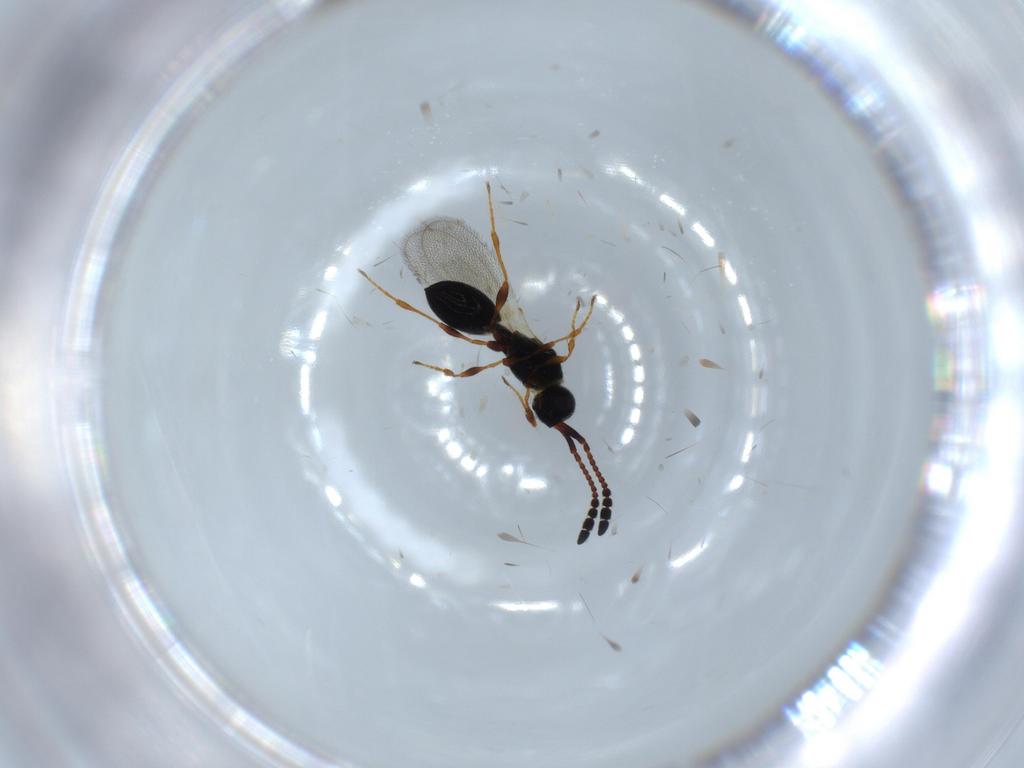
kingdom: Animalia
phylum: Arthropoda
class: Insecta
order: Hymenoptera
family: Diapriidae
